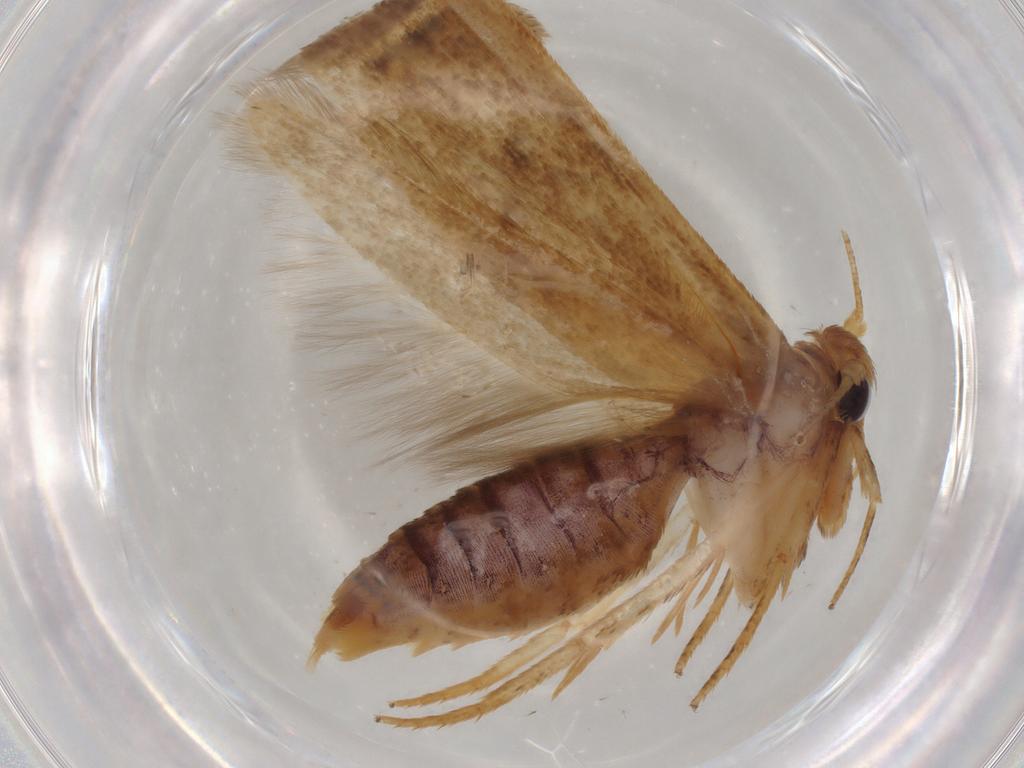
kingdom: Animalia
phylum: Arthropoda
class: Insecta
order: Lepidoptera
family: Blastobasidae
